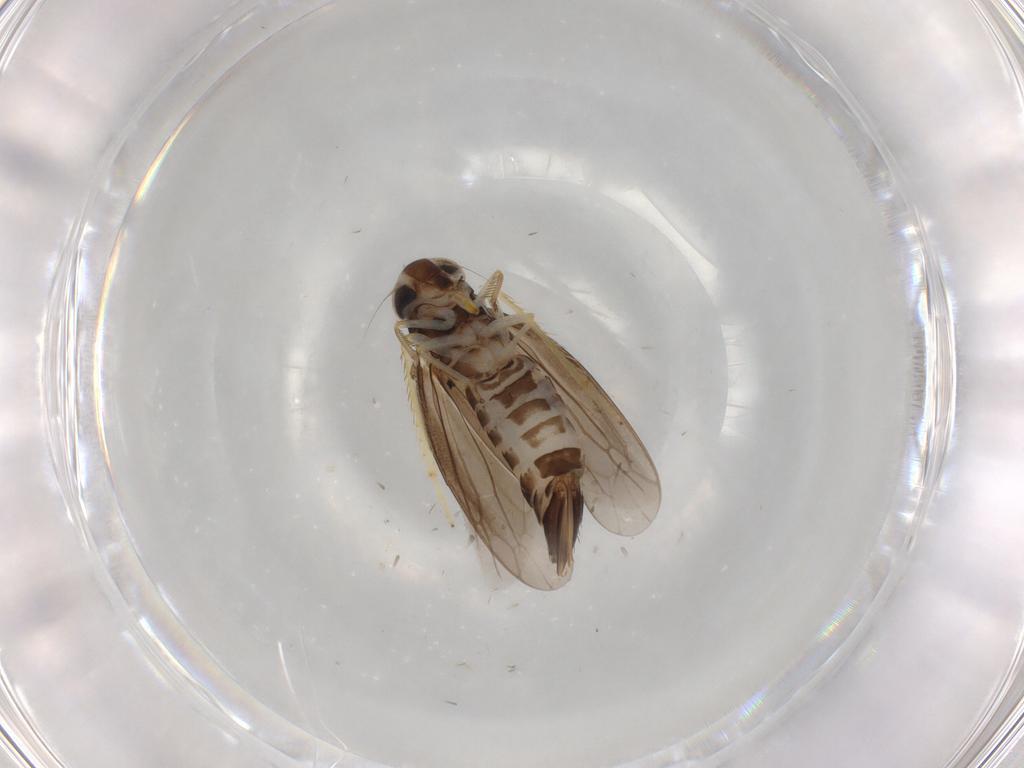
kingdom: Animalia
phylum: Arthropoda
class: Insecta
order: Hemiptera
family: Cicadellidae
